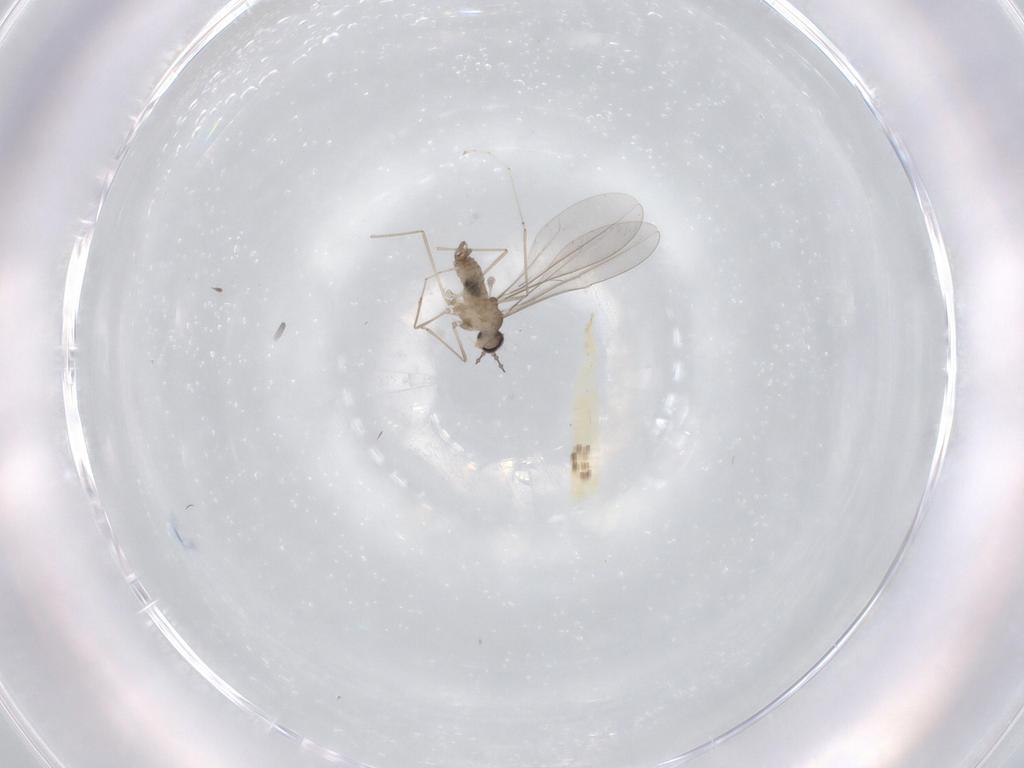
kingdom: Animalia
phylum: Arthropoda
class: Insecta
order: Diptera
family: Cecidomyiidae
